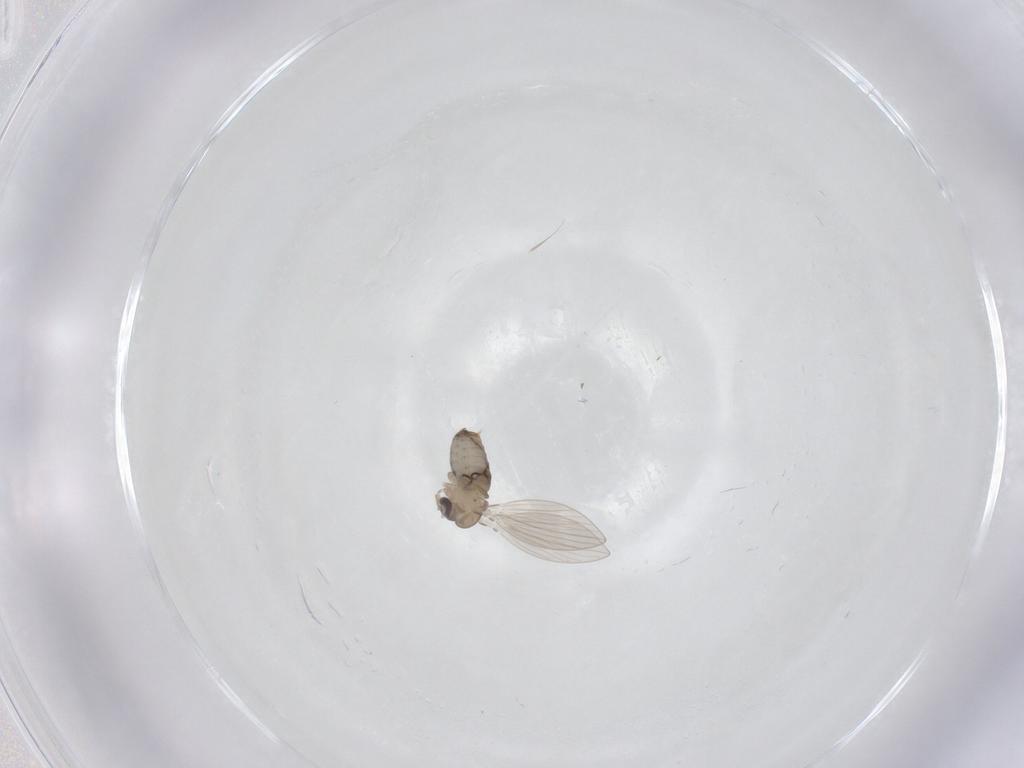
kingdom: Animalia
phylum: Arthropoda
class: Insecta
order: Diptera
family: Psychodidae
